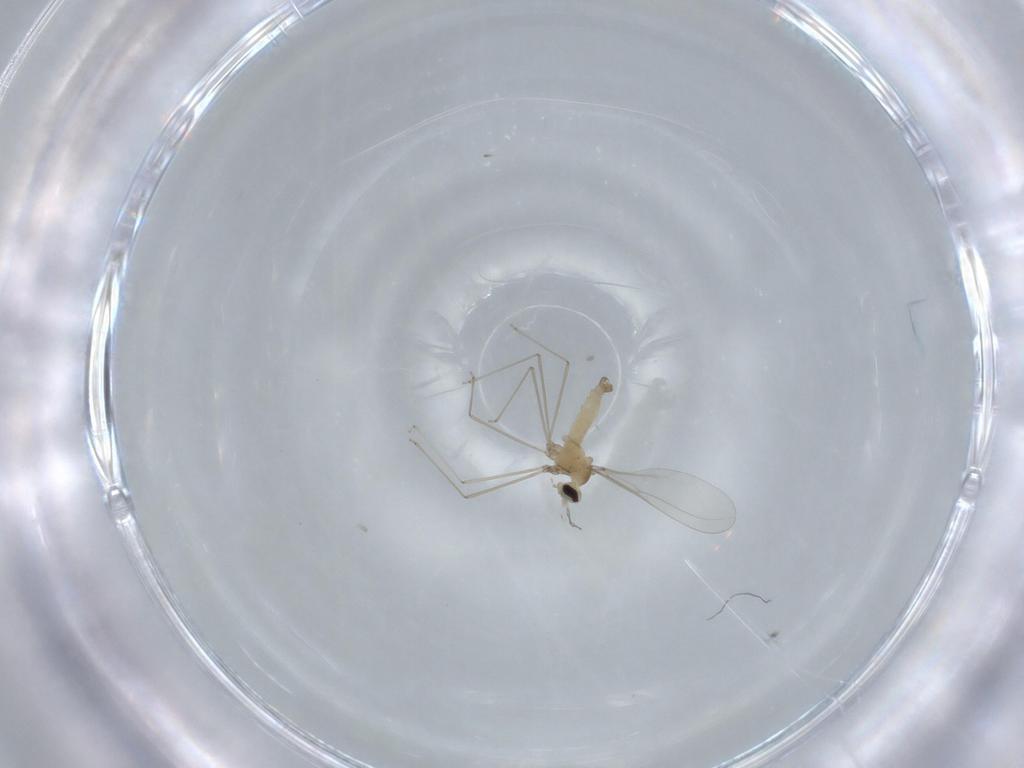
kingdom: Animalia
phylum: Arthropoda
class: Insecta
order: Diptera
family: Cecidomyiidae
